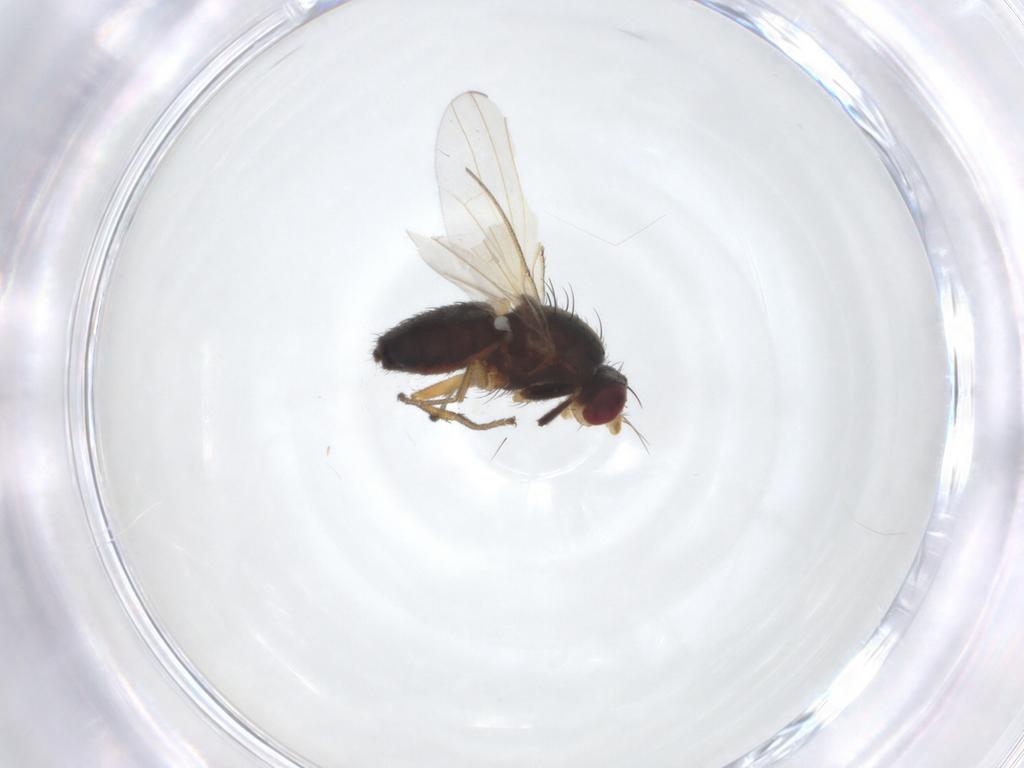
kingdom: Animalia
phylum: Arthropoda
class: Insecta
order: Diptera
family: Heleomyzidae
